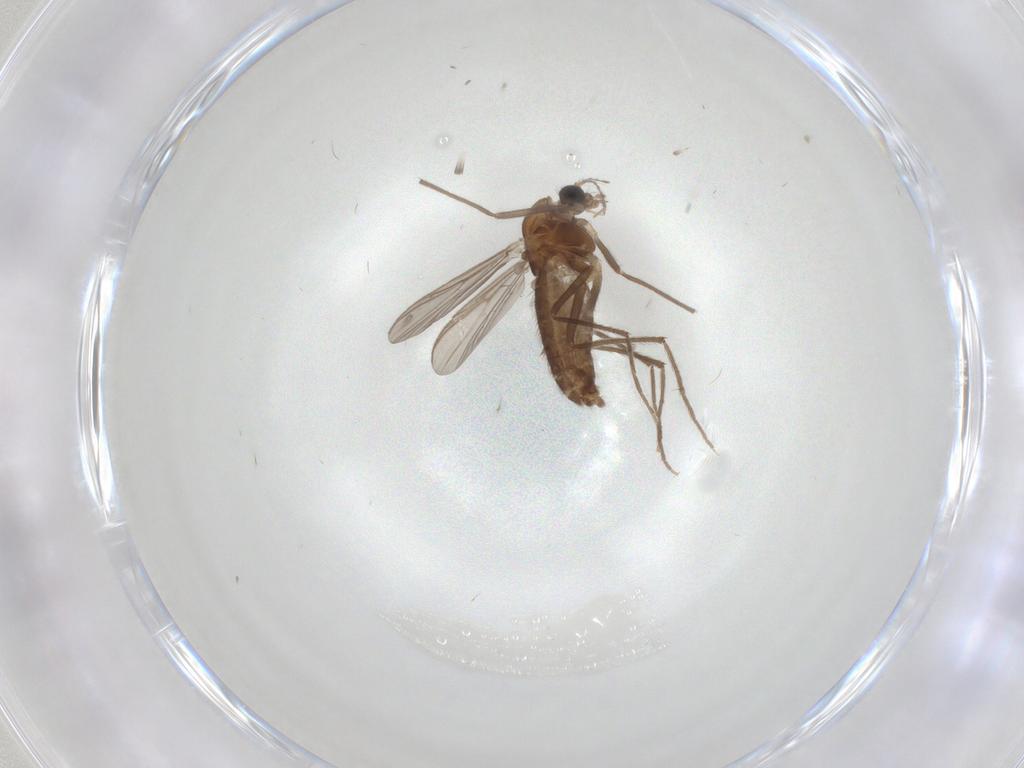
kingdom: Animalia
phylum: Arthropoda
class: Insecta
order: Diptera
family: Chironomidae
